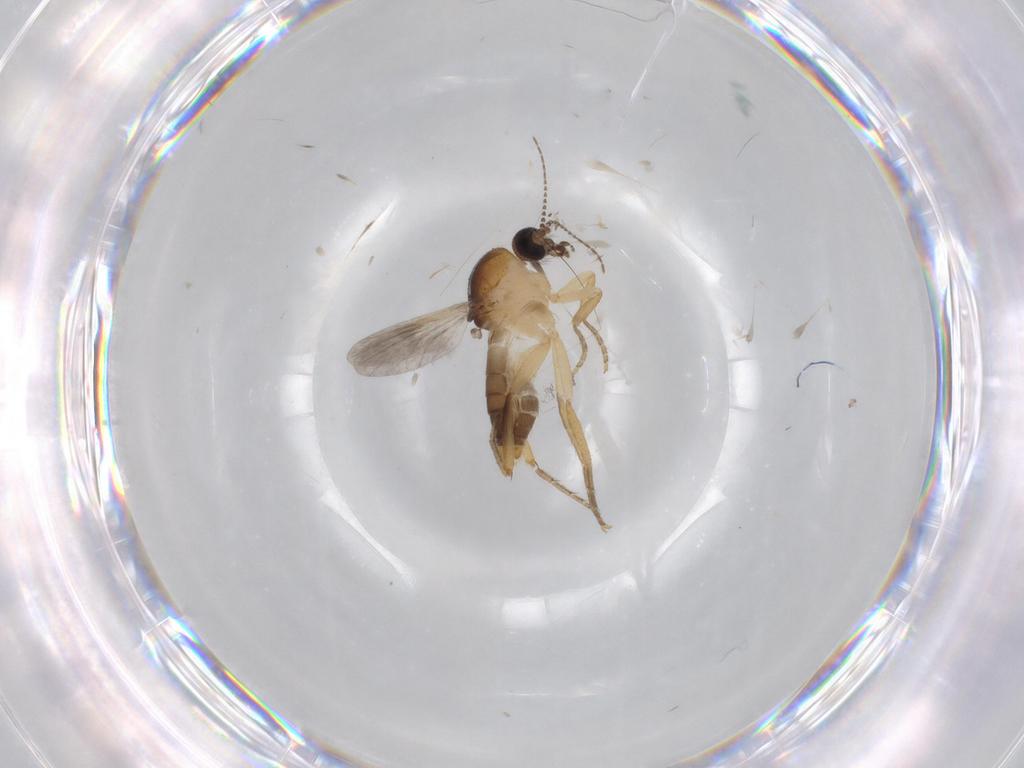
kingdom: Animalia
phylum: Arthropoda
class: Insecta
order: Diptera
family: Ceratopogonidae
